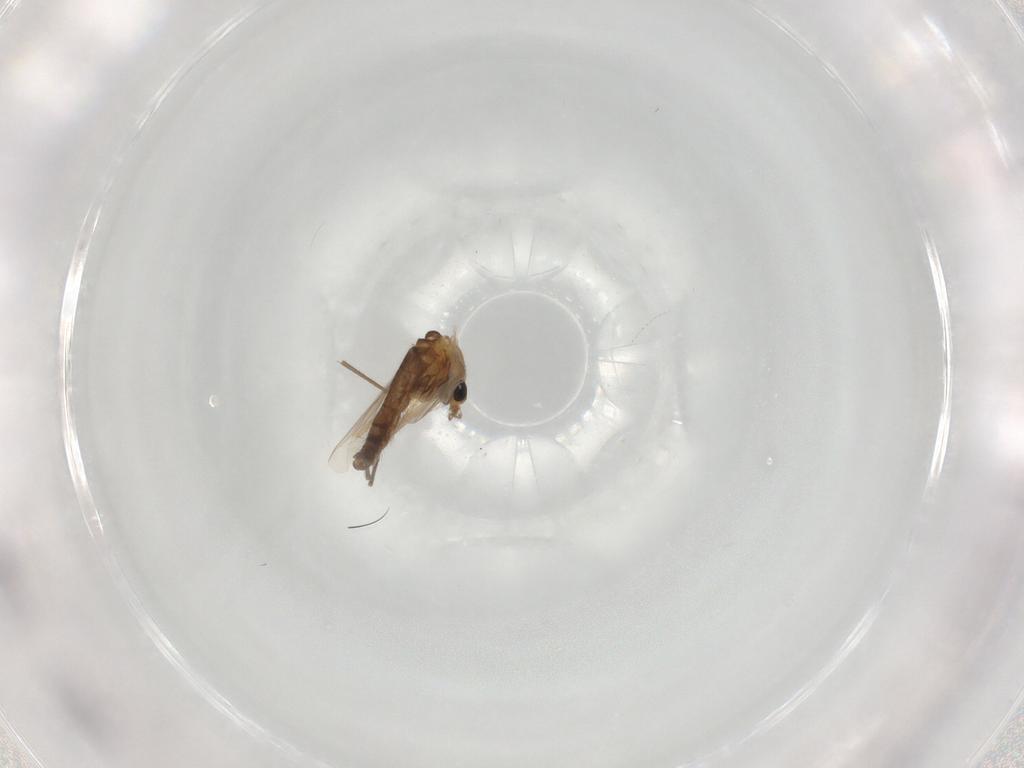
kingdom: Animalia
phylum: Arthropoda
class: Insecta
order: Diptera
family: Chironomidae
